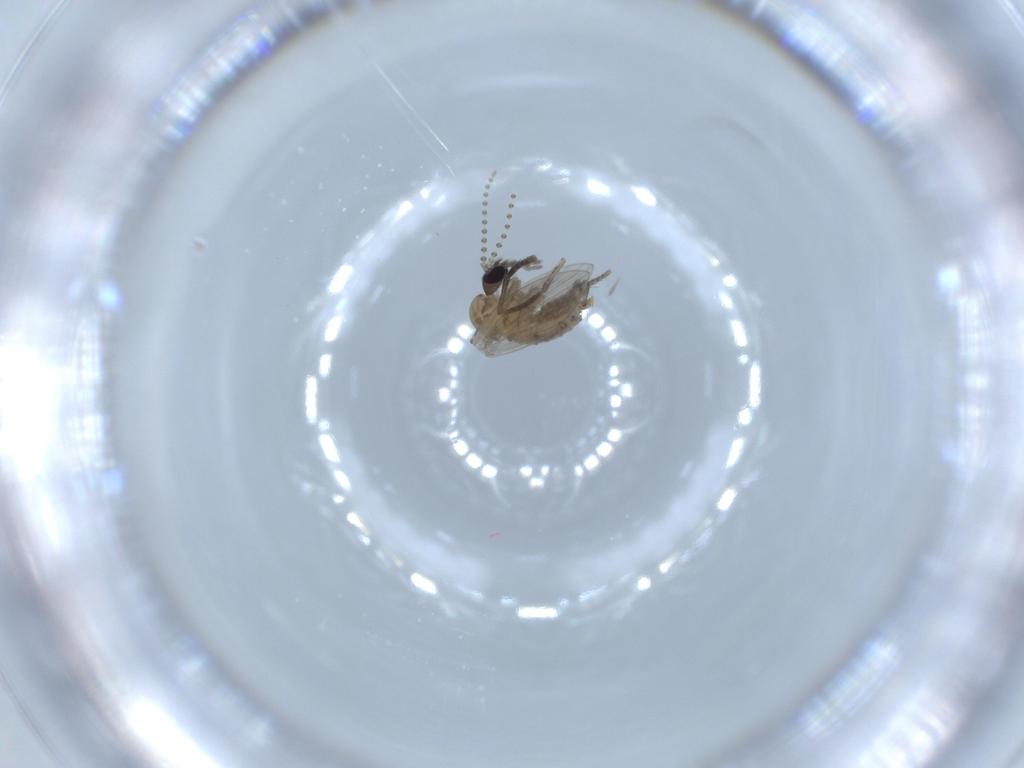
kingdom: Animalia
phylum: Arthropoda
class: Insecta
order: Diptera
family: Psychodidae
